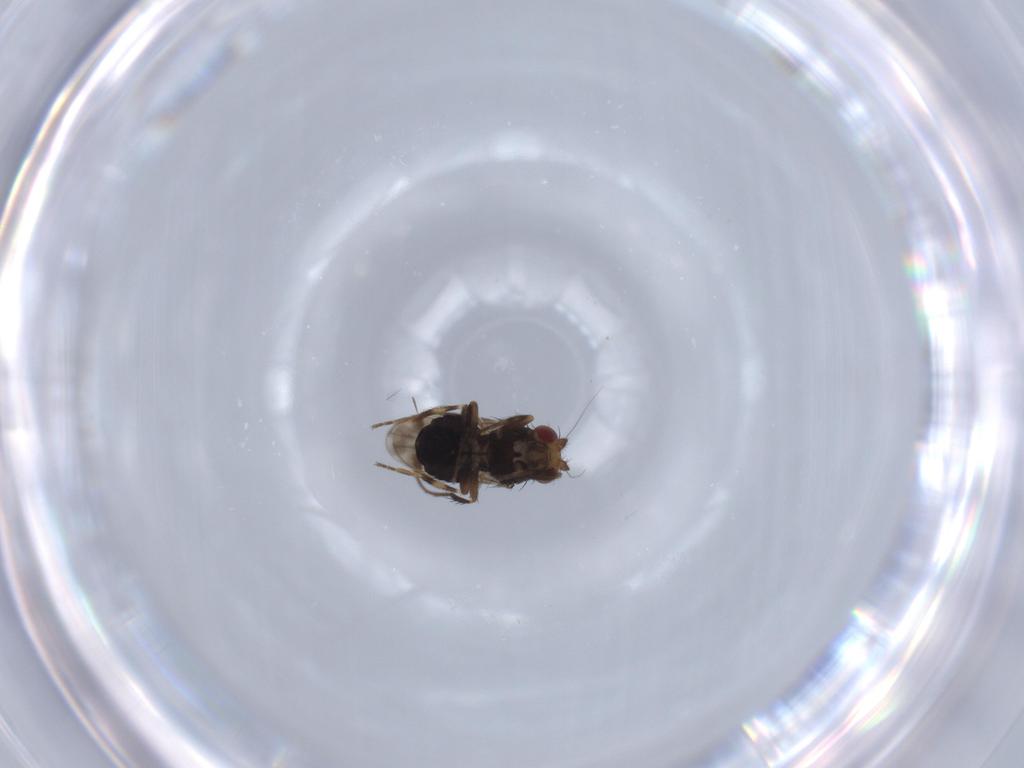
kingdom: Animalia
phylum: Arthropoda
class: Insecta
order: Diptera
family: Sphaeroceridae
